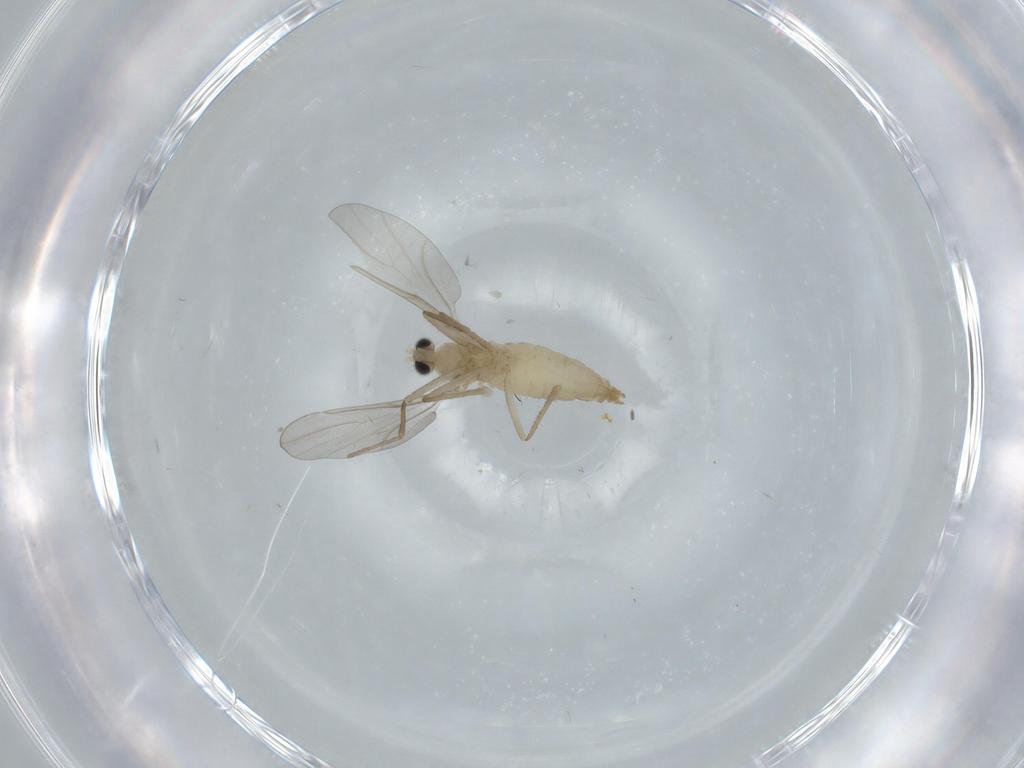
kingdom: Animalia
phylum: Arthropoda
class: Insecta
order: Diptera
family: Cecidomyiidae
